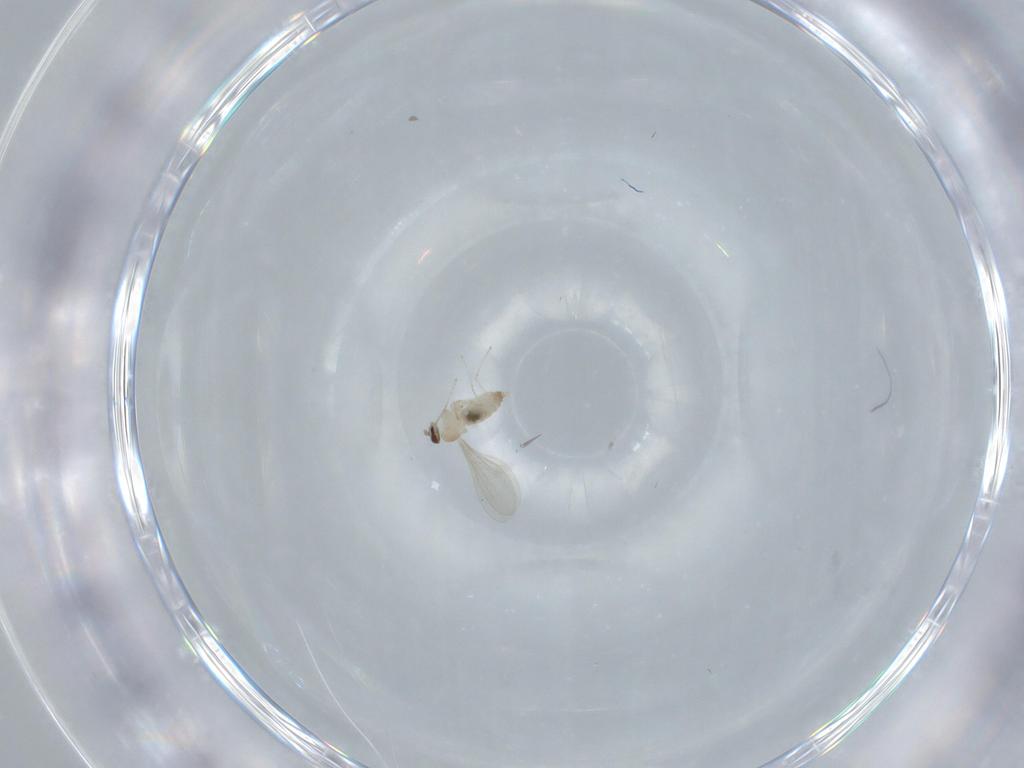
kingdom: Animalia
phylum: Arthropoda
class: Insecta
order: Diptera
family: Cecidomyiidae
